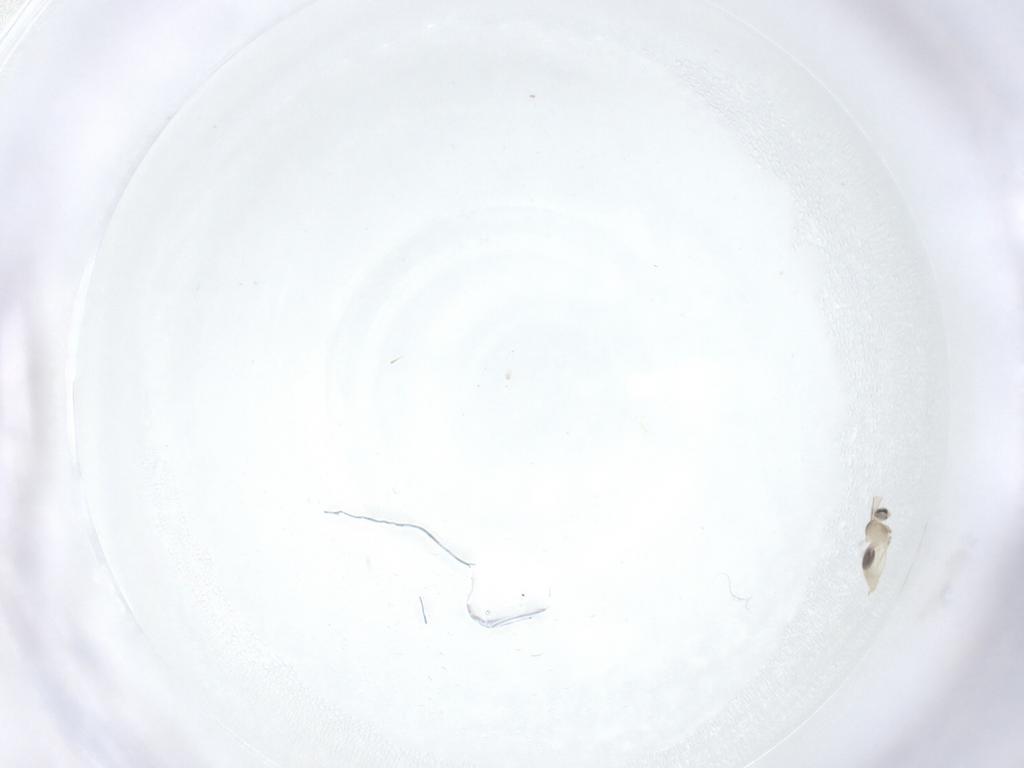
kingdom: Animalia
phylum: Arthropoda
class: Insecta
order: Diptera
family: Cecidomyiidae
